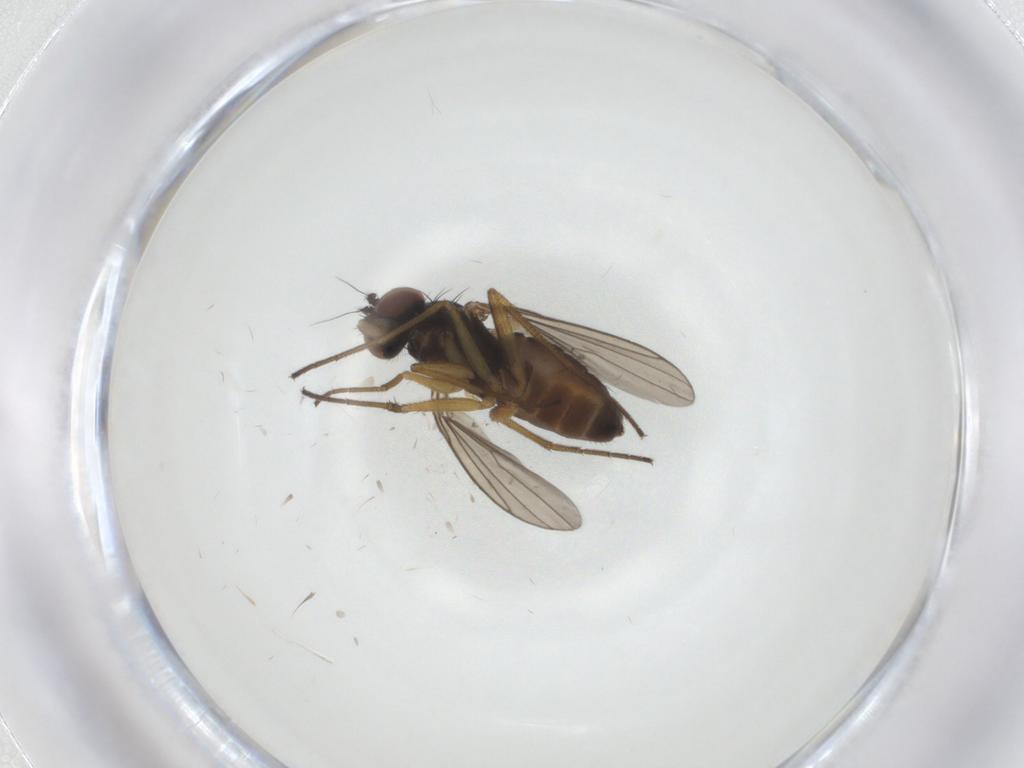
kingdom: Animalia
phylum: Arthropoda
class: Insecta
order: Diptera
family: Dolichopodidae
